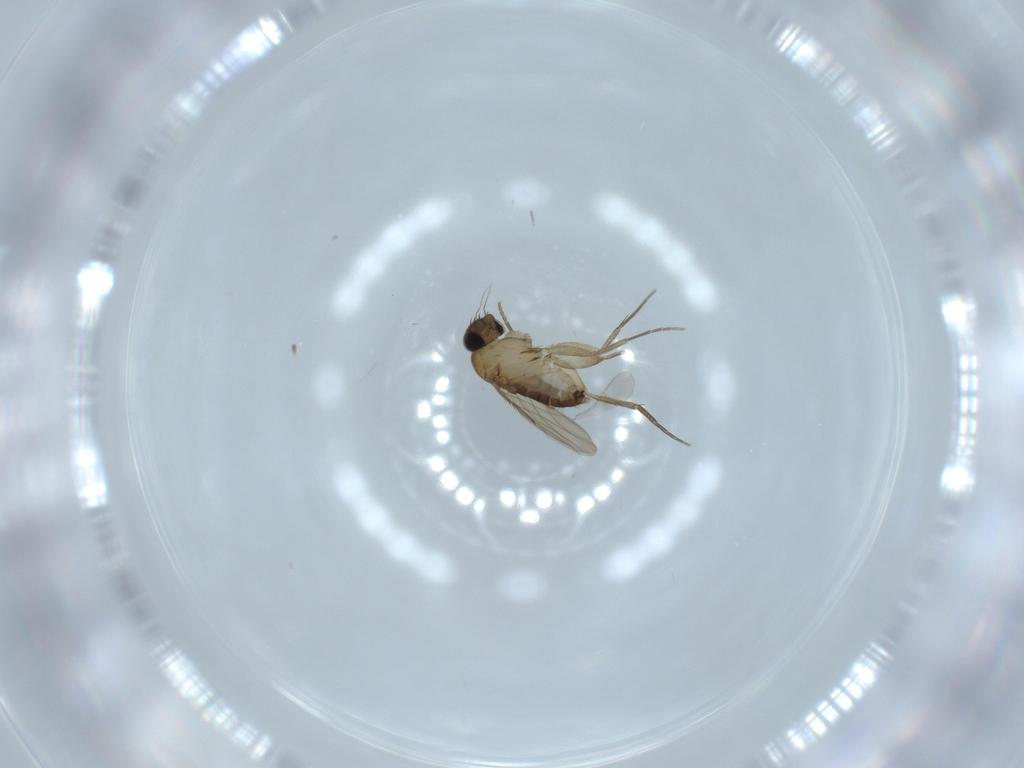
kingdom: Animalia
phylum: Arthropoda
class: Insecta
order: Diptera
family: Phoridae
